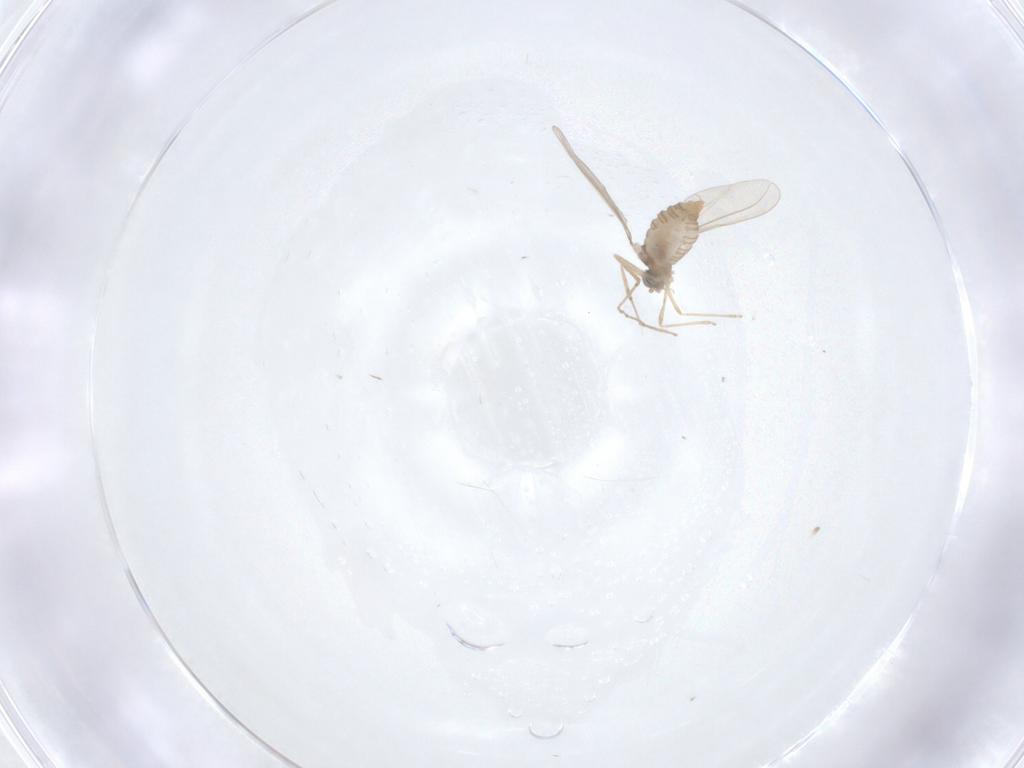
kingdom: Animalia
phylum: Arthropoda
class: Insecta
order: Diptera
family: Cecidomyiidae
